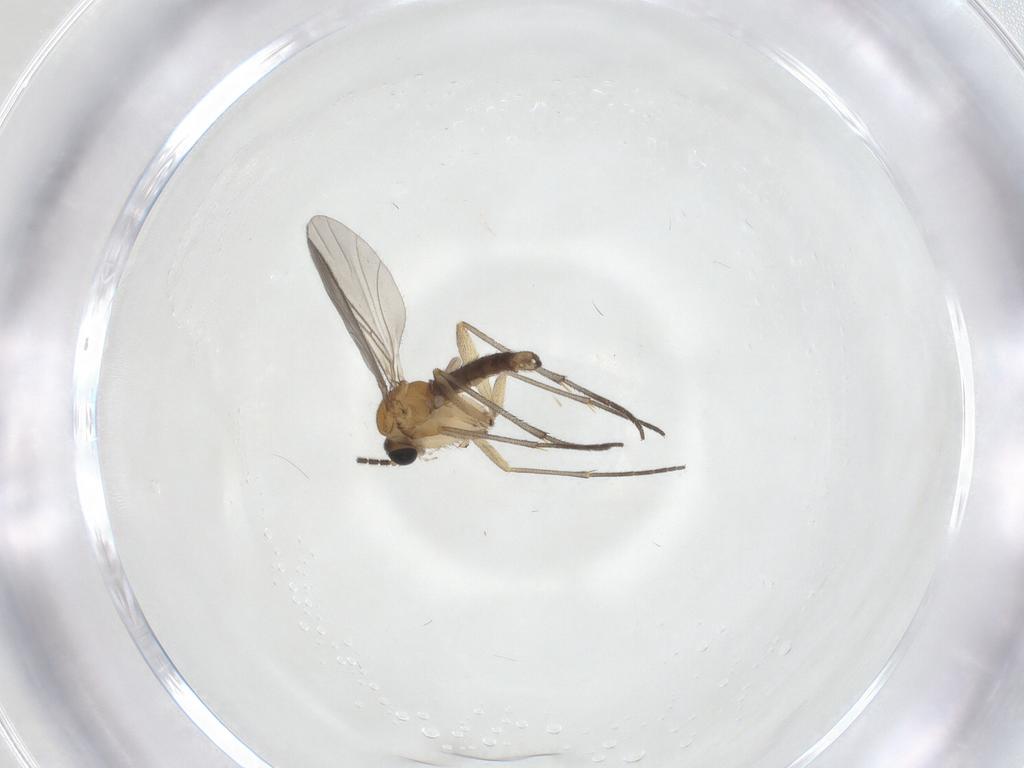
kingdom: Animalia
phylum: Arthropoda
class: Insecta
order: Diptera
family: Sciaridae
